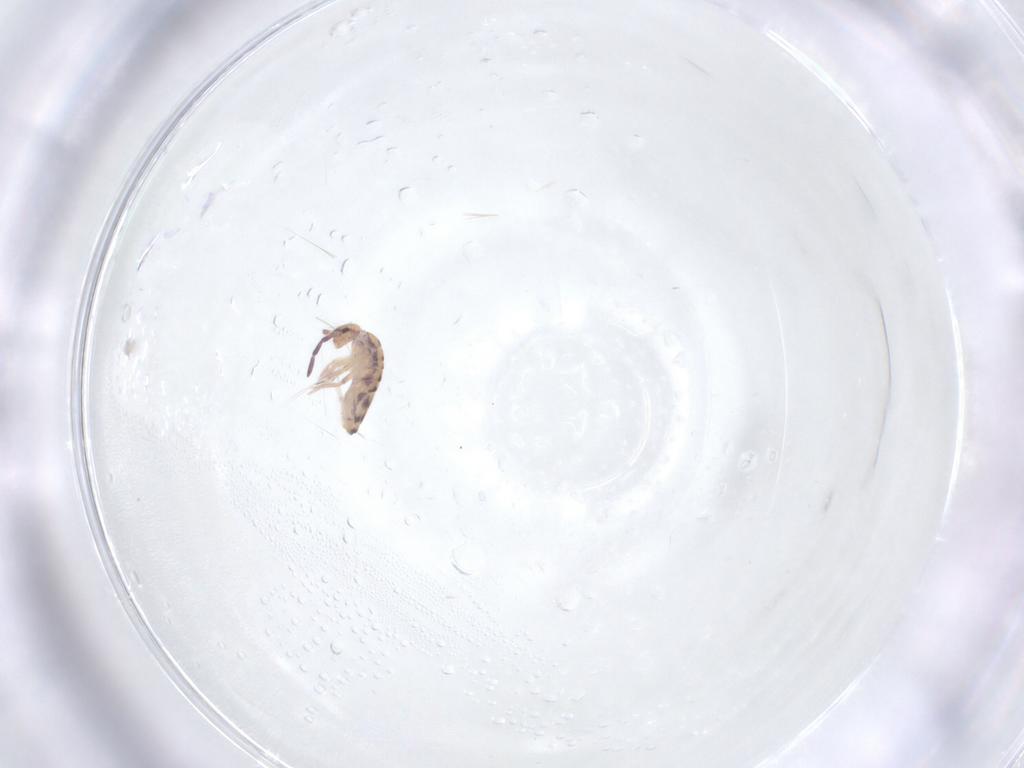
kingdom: Animalia
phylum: Arthropoda
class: Collembola
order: Entomobryomorpha
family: Entomobryidae
